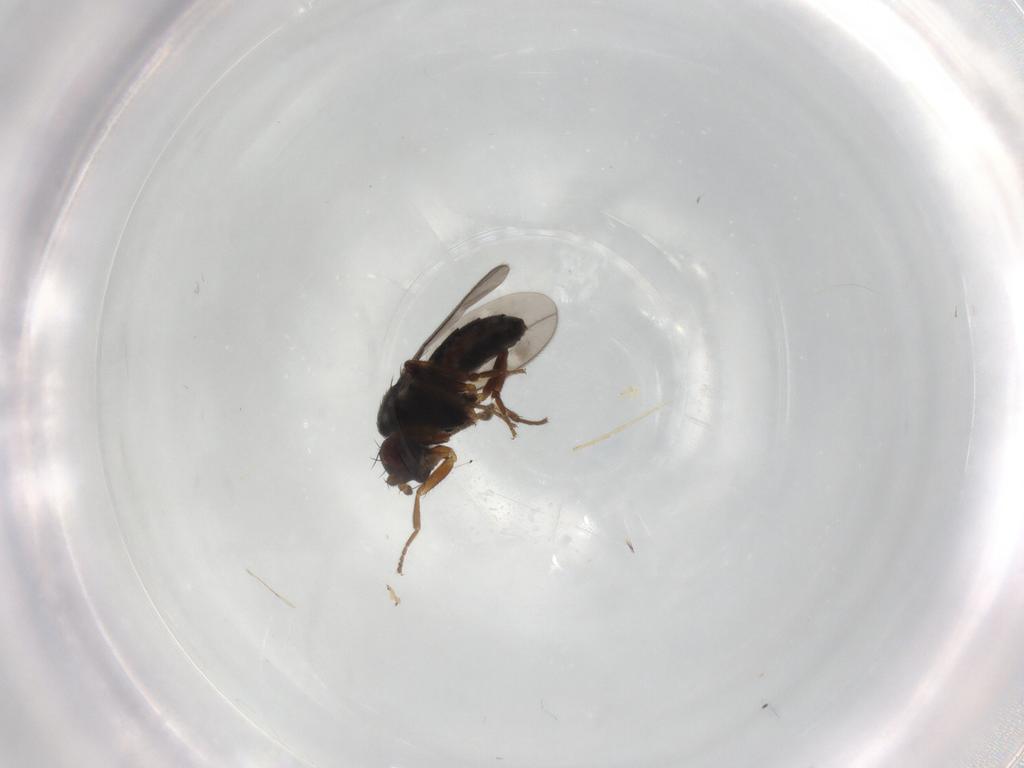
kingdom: Animalia
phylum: Arthropoda
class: Insecta
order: Diptera
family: Sphaeroceridae
